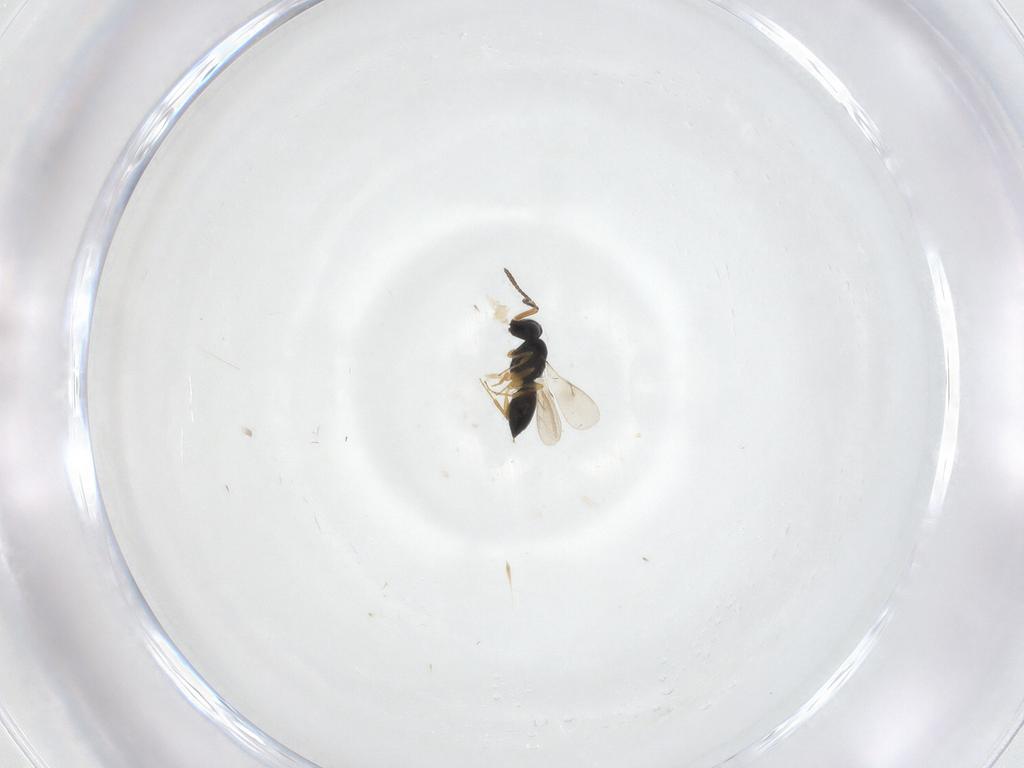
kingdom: Animalia
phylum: Arthropoda
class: Insecta
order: Hymenoptera
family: Scelionidae
